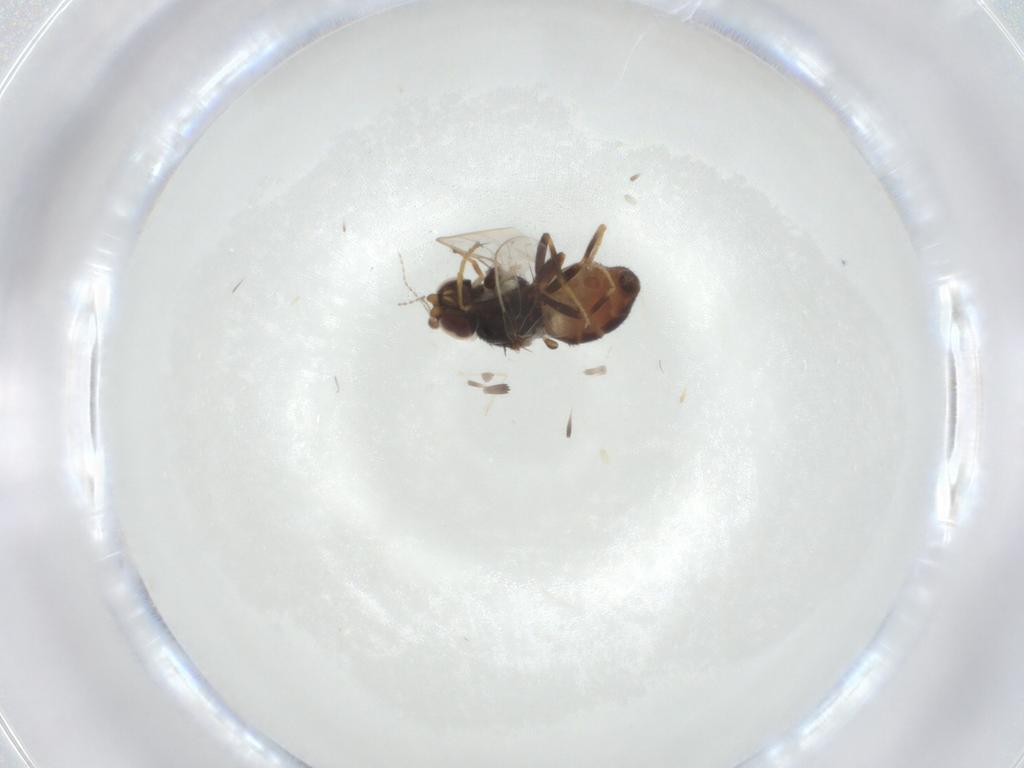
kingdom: Animalia
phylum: Arthropoda
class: Insecta
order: Diptera
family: Chloropidae
